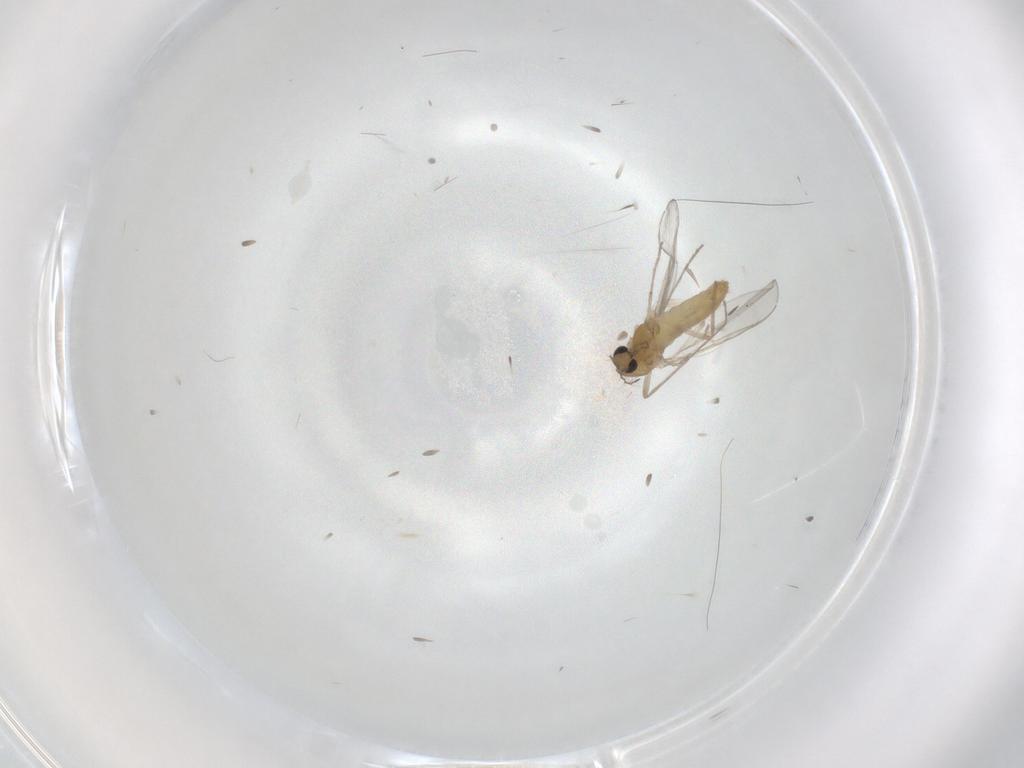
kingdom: Animalia
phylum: Arthropoda
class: Insecta
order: Diptera
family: Chironomidae
